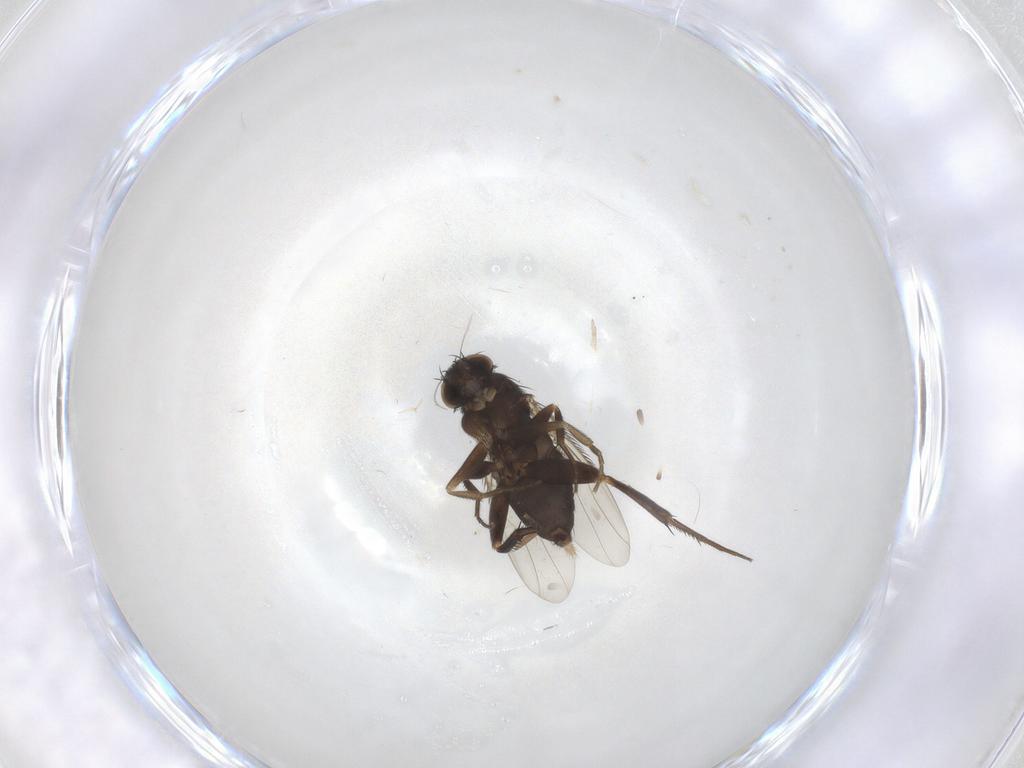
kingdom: Animalia
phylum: Arthropoda
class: Insecta
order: Diptera
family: Phoridae
